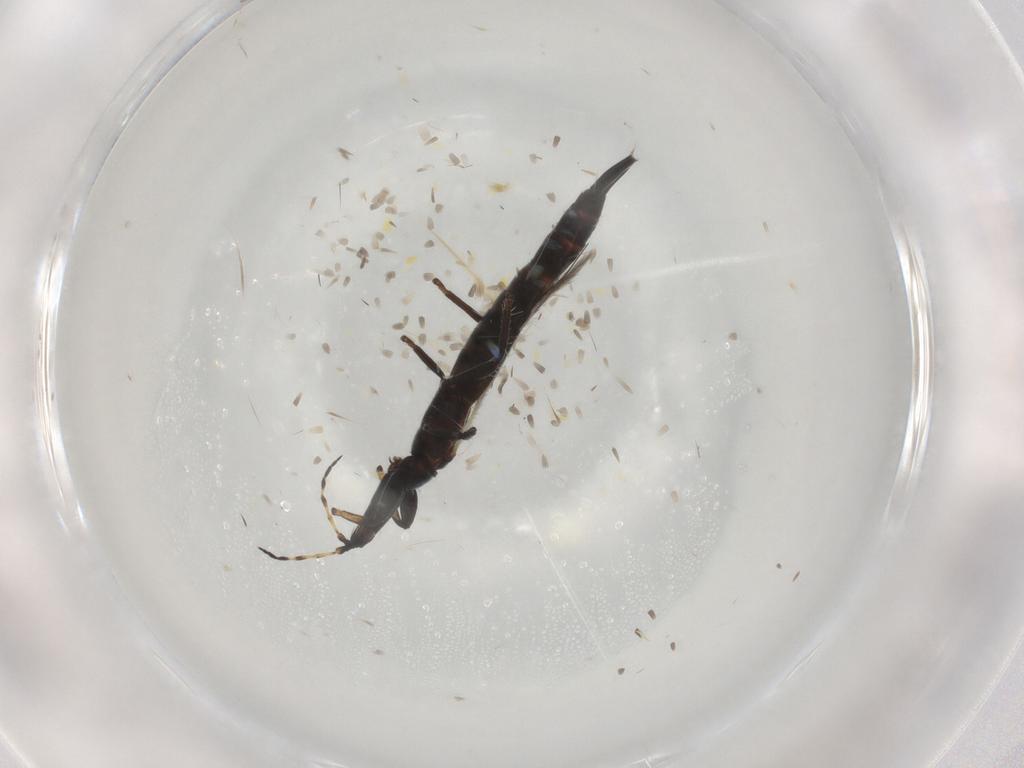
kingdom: Animalia
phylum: Arthropoda
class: Insecta
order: Thysanoptera
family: Phlaeothripidae
